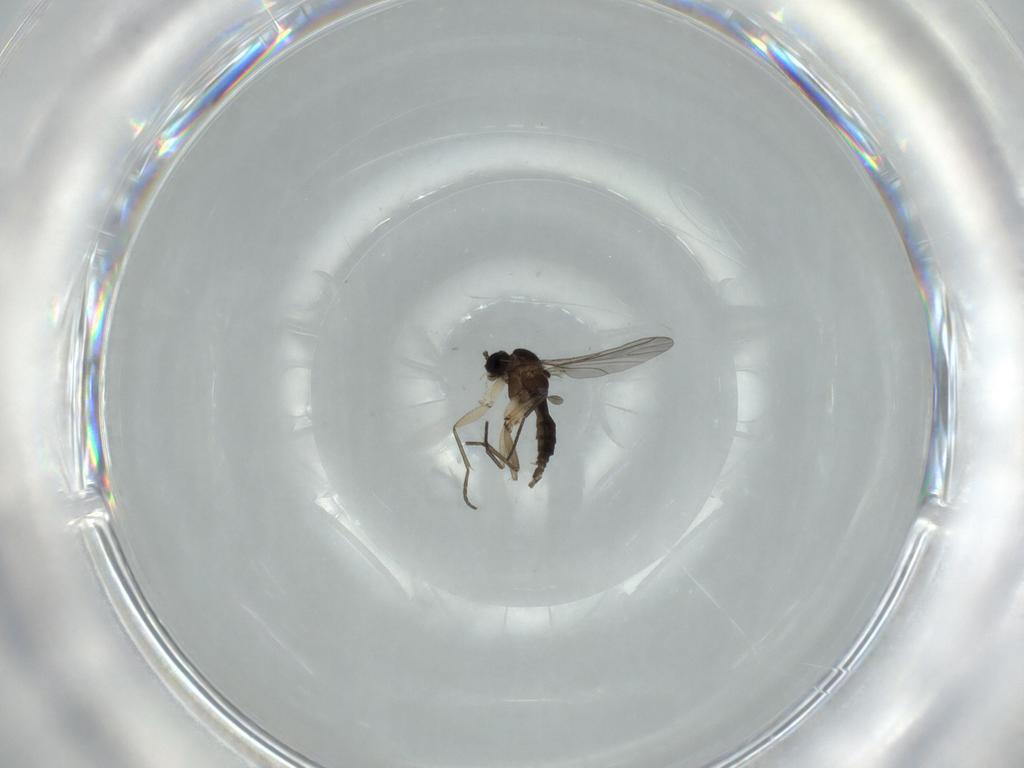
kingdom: Animalia
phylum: Arthropoda
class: Insecta
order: Diptera
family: Sciaridae
